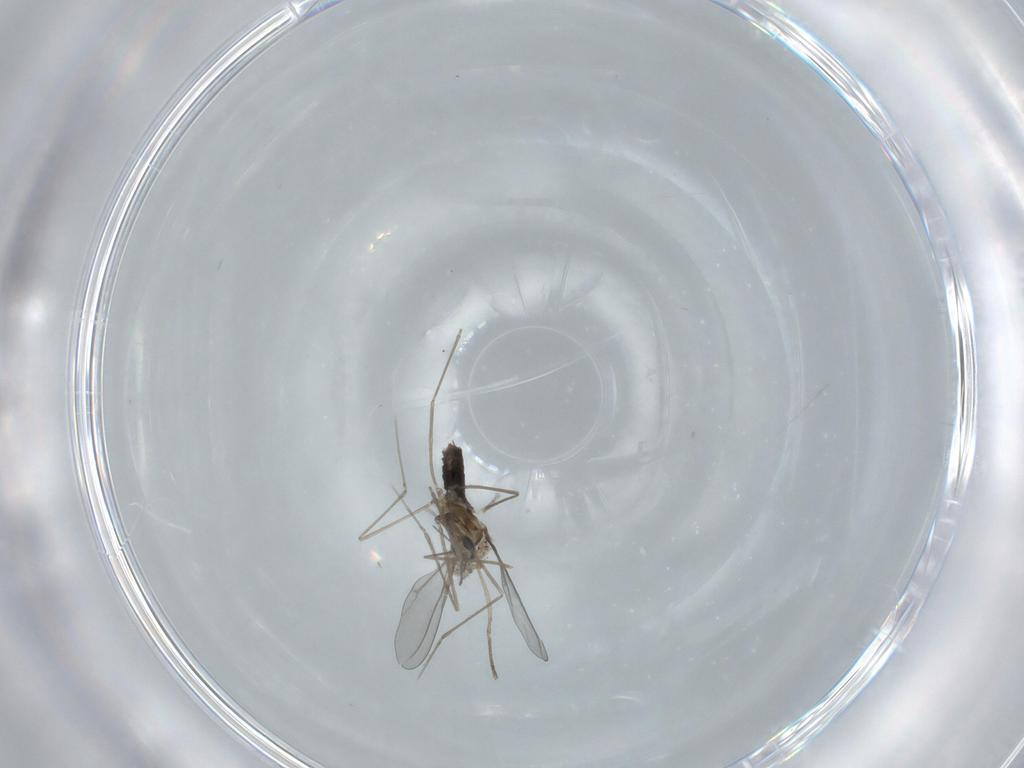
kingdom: Animalia
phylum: Arthropoda
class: Insecta
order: Diptera
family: Cecidomyiidae
